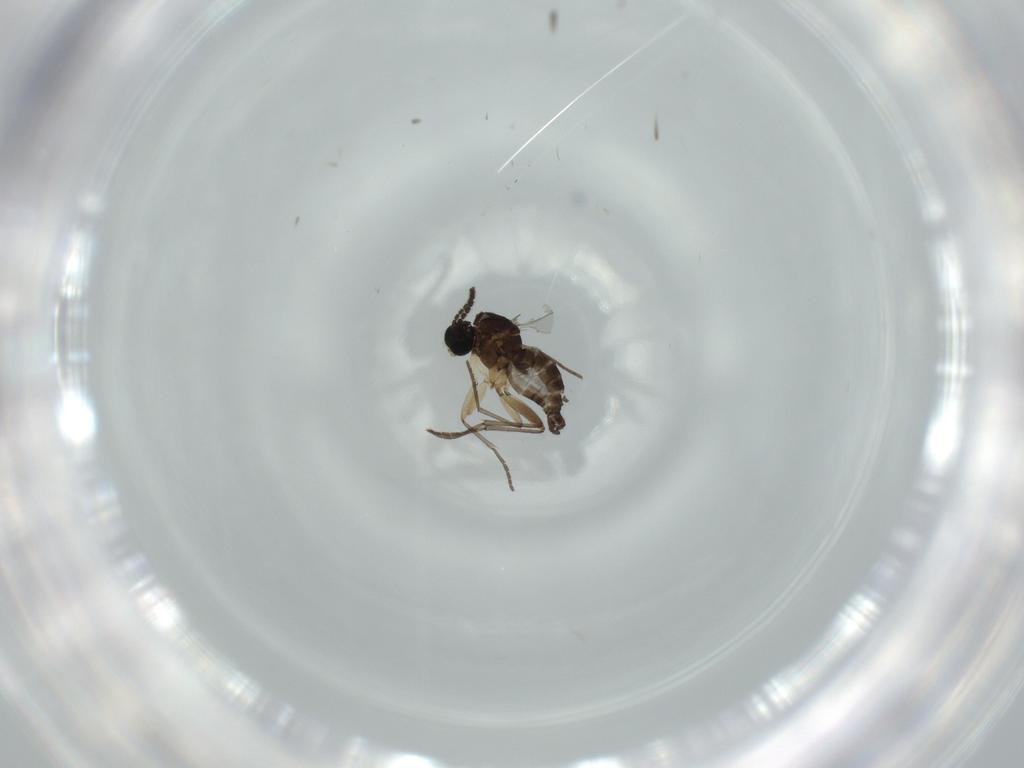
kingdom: Animalia
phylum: Arthropoda
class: Insecta
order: Diptera
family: Sciaridae
